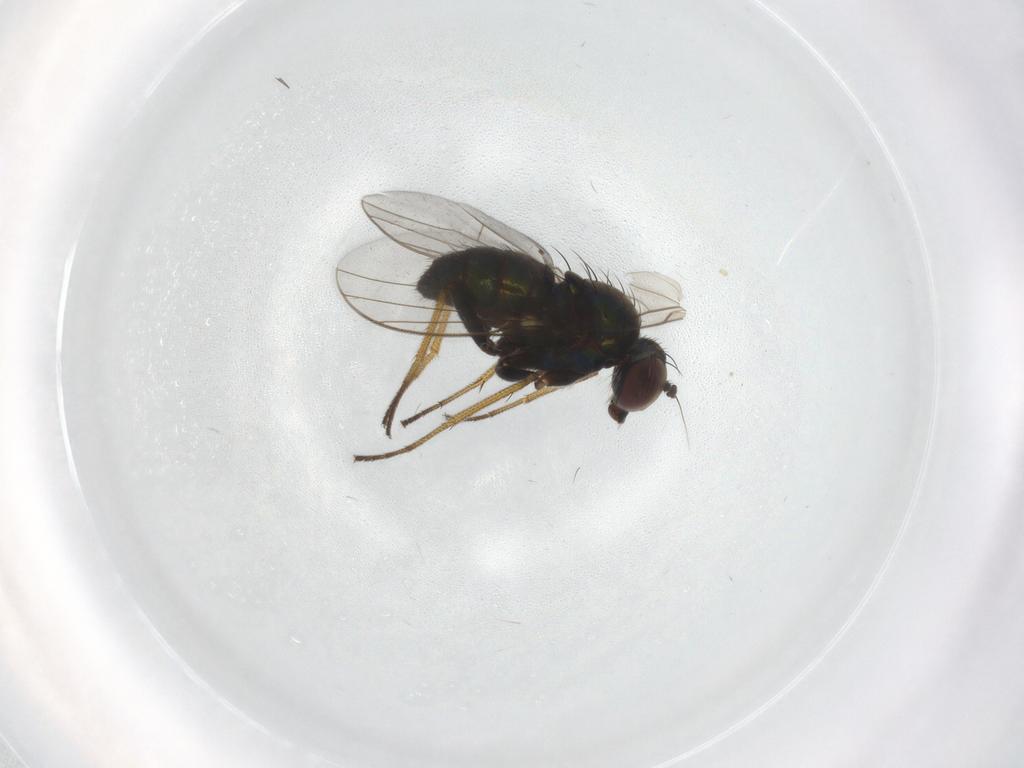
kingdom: Animalia
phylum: Arthropoda
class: Insecta
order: Diptera
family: Dolichopodidae
